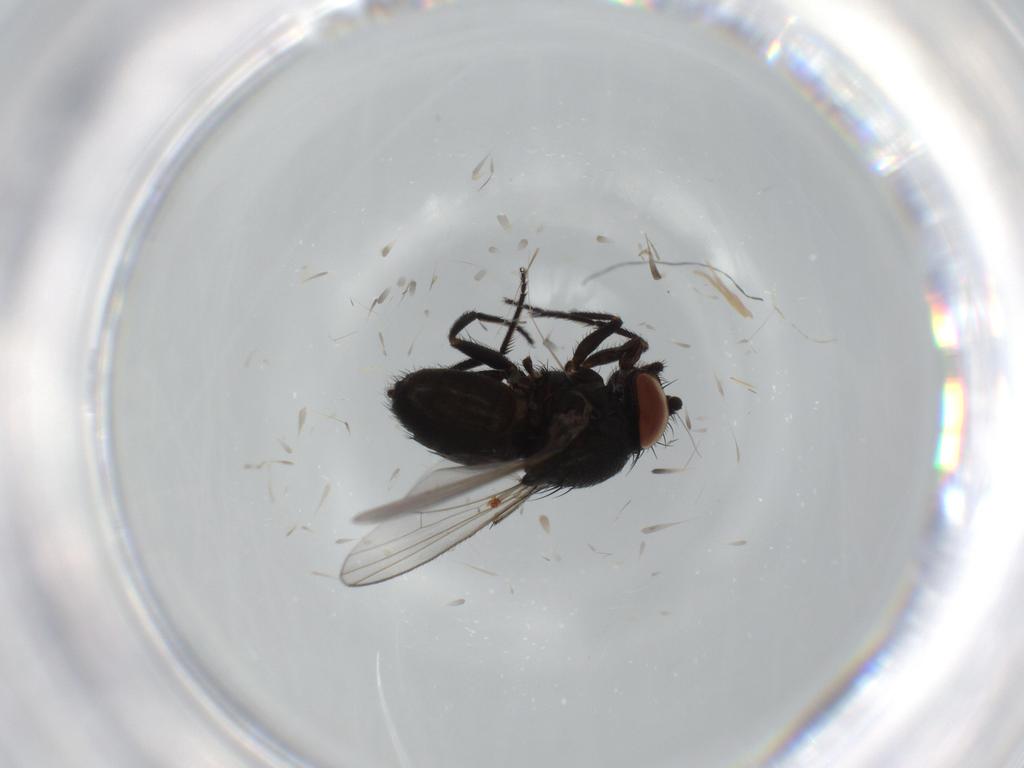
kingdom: Animalia
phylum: Arthropoda
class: Insecta
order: Diptera
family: Milichiidae
